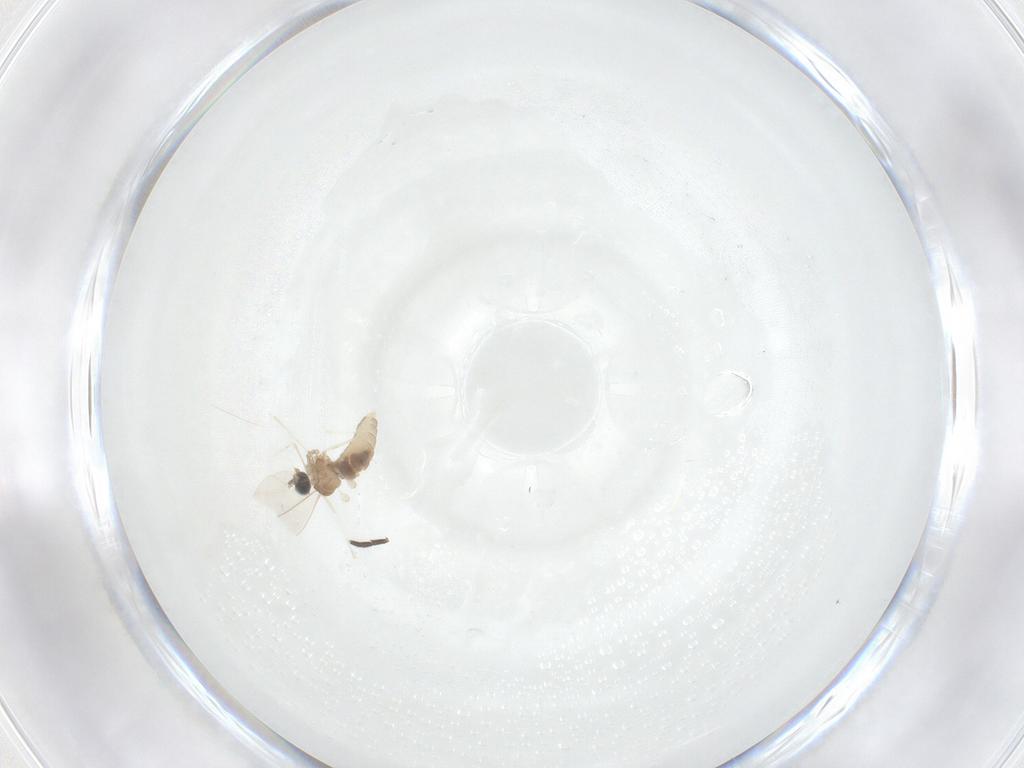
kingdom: Animalia
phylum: Arthropoda
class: Insecta
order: Diptera
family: Cecidomyiidae
